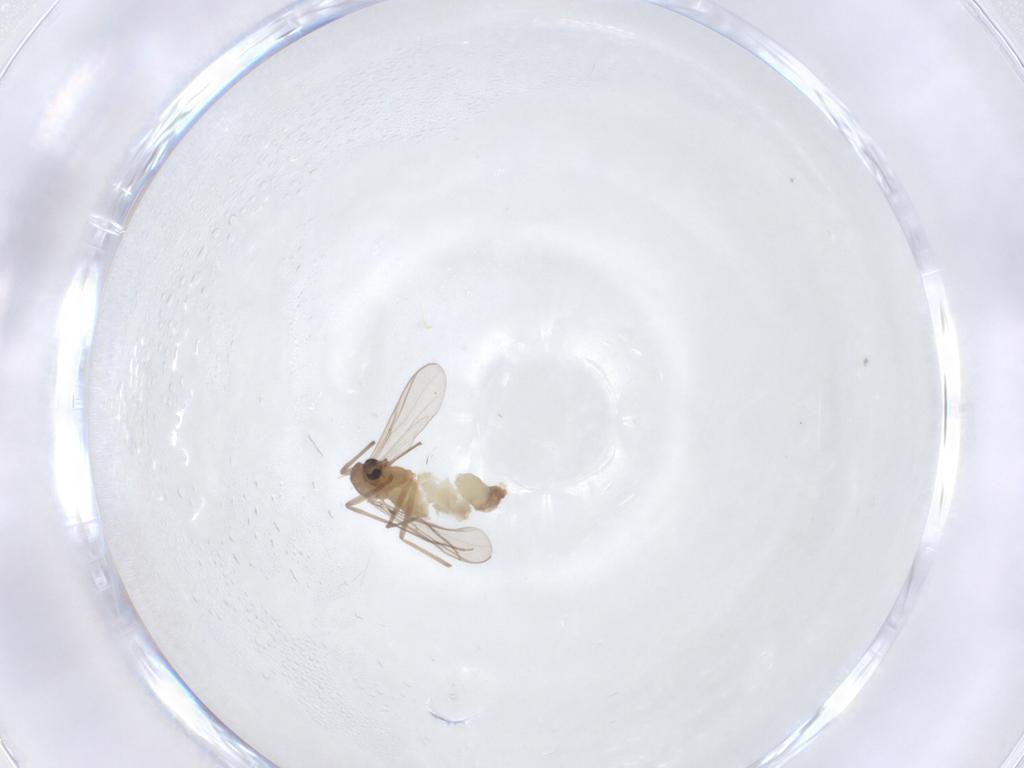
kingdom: Animalia
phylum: Arthropoda
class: Insecta
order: Diptera
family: Chironomidae
